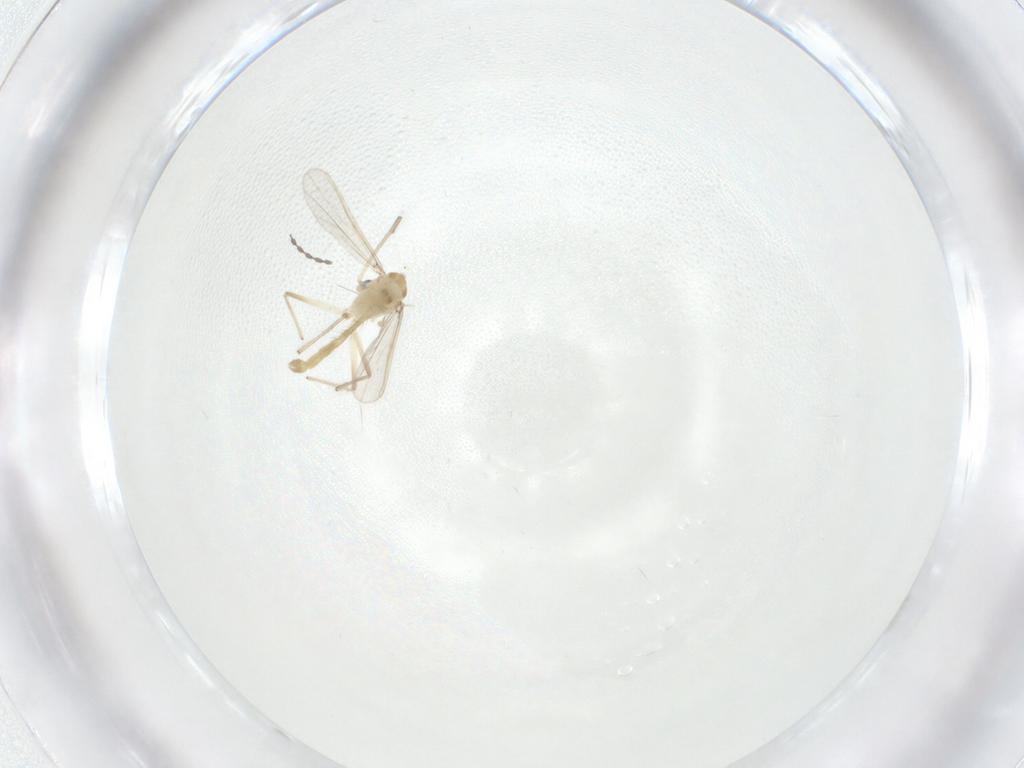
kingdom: Animalia
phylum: Arthropoda
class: Insecta
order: Diptera
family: Chironomidae
